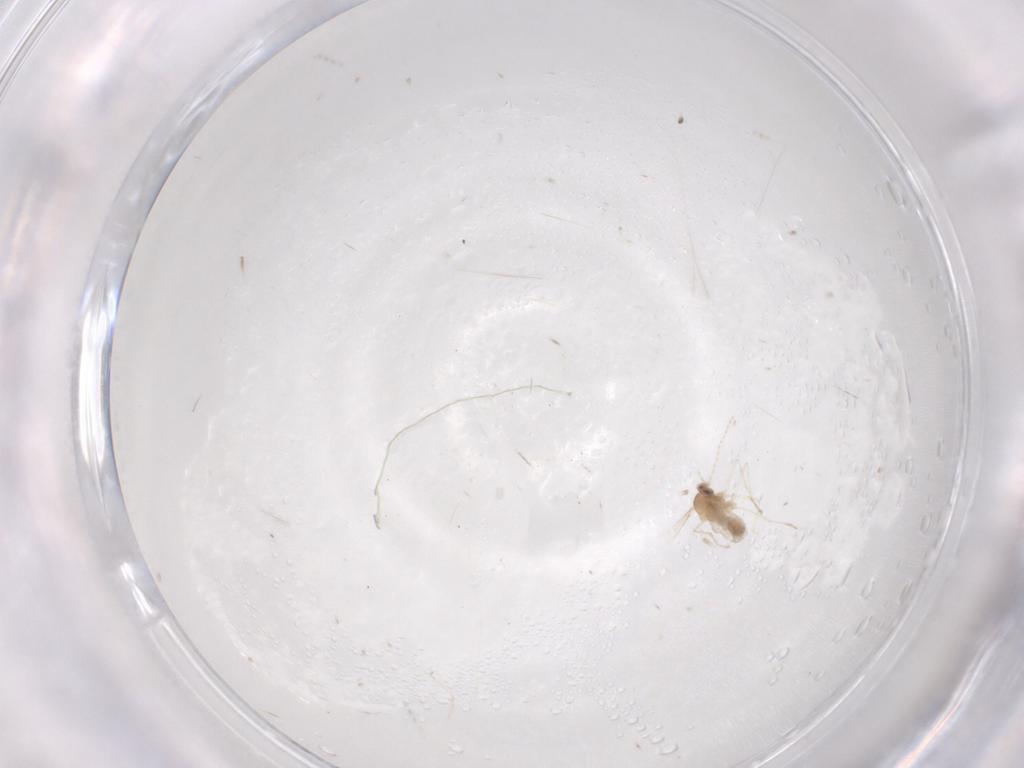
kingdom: Animalia
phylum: Arthropoda
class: Insecta
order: Diptera
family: Cecidomyiidae
